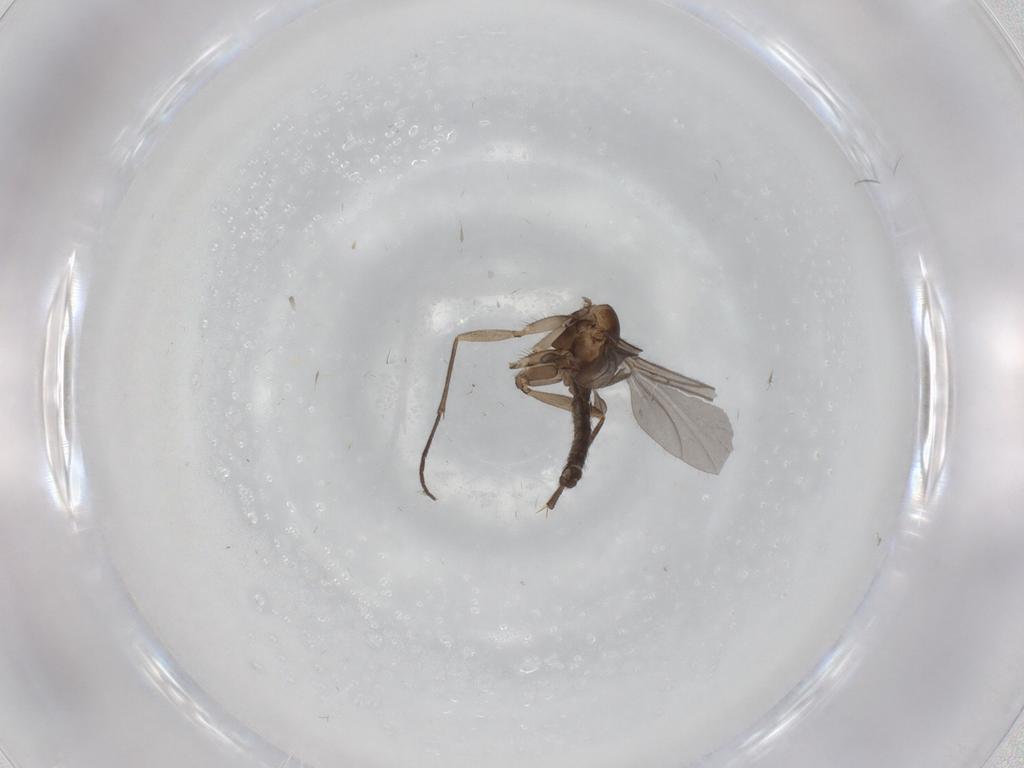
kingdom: Animalia
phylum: Arthropoda
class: Insecta
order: Diptera
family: Sciaridae
